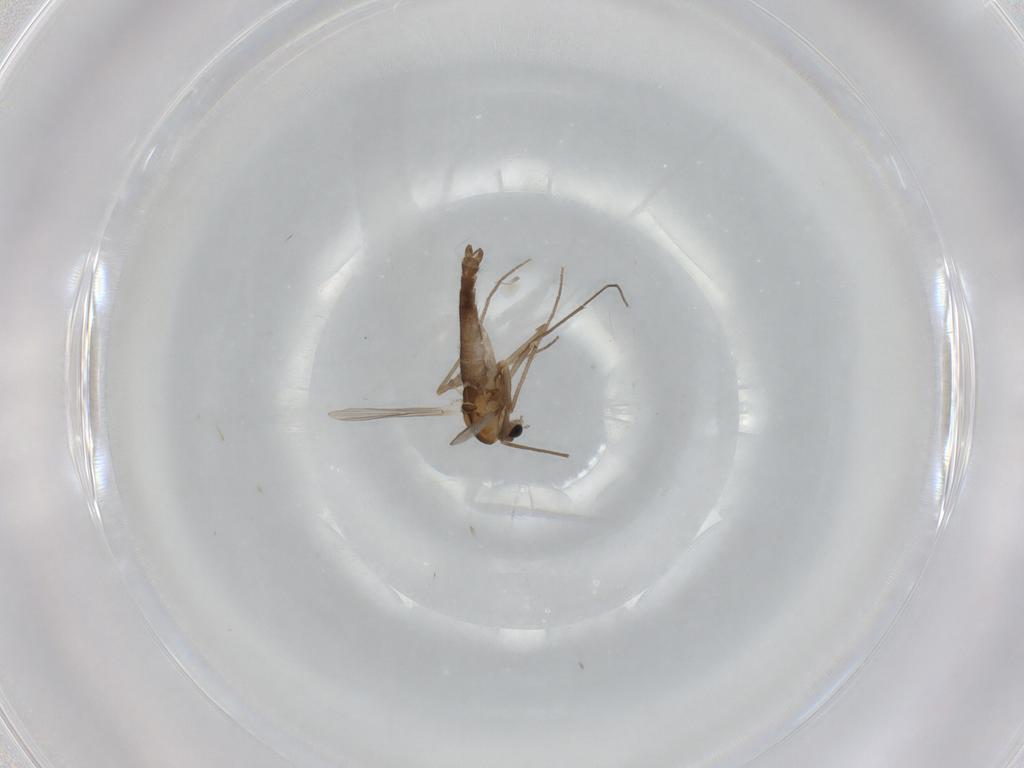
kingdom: Animalia
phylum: Arthropoda
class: Insecta
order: Diptera
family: Chironomidae
